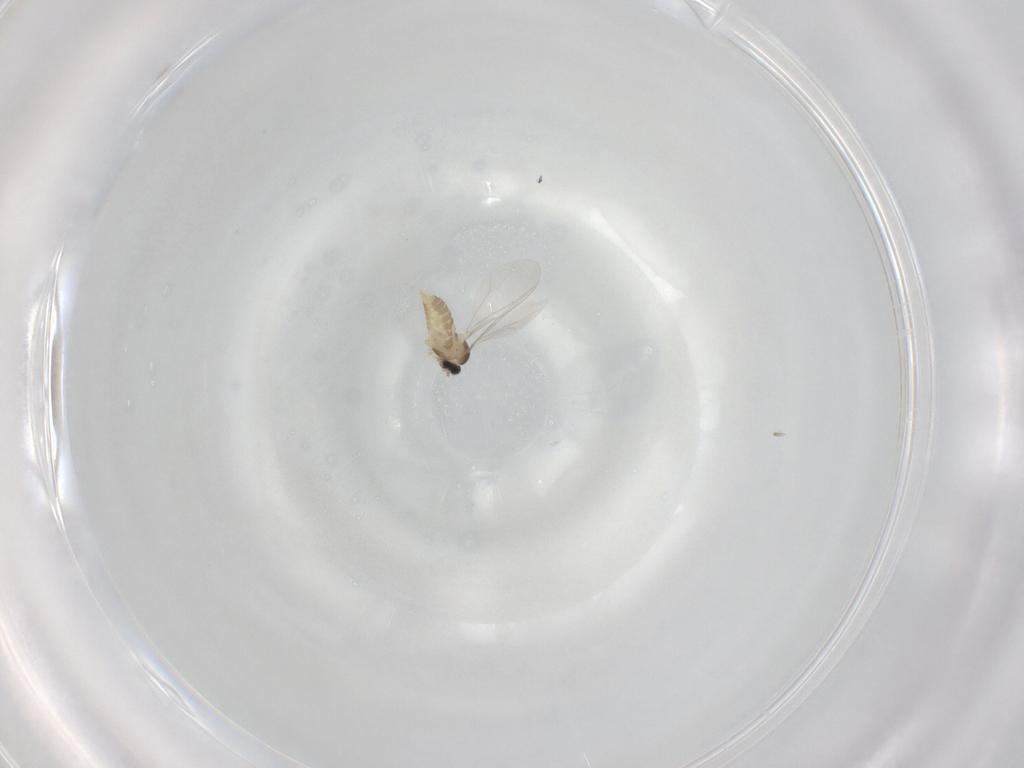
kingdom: Animalia
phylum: Arthropoda
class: Insecta
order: Diptera
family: Cecidomyiidae
